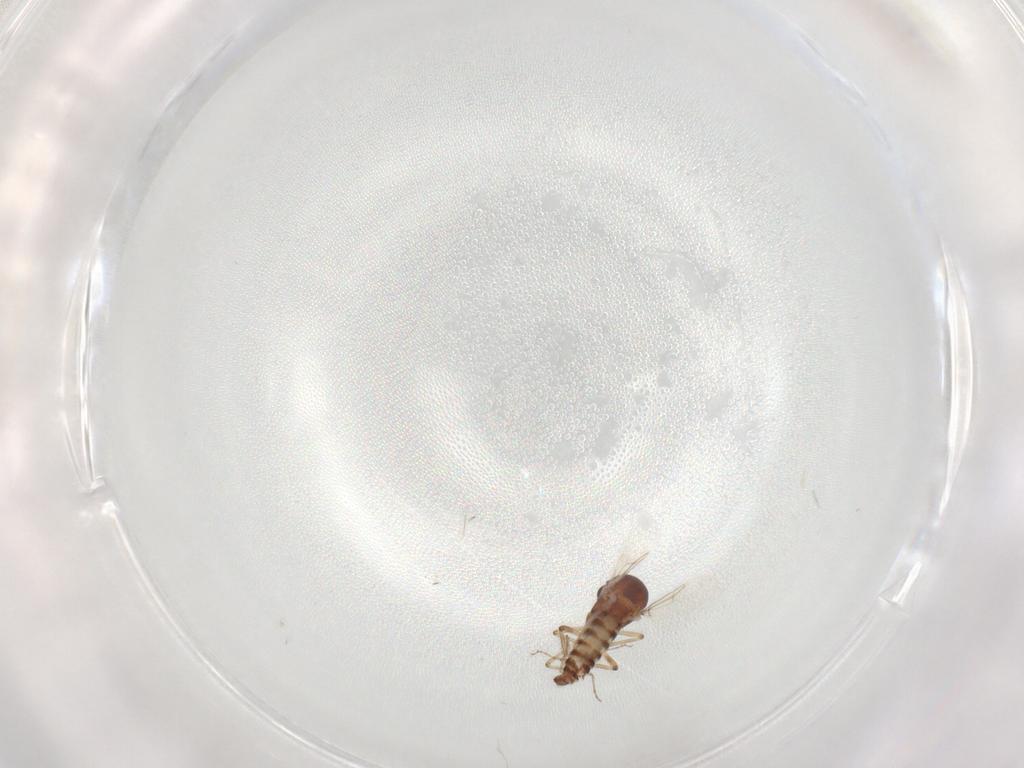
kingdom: Animalia
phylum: Arthropoda
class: Insecta
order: Diptera
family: Ceratopogonidae
